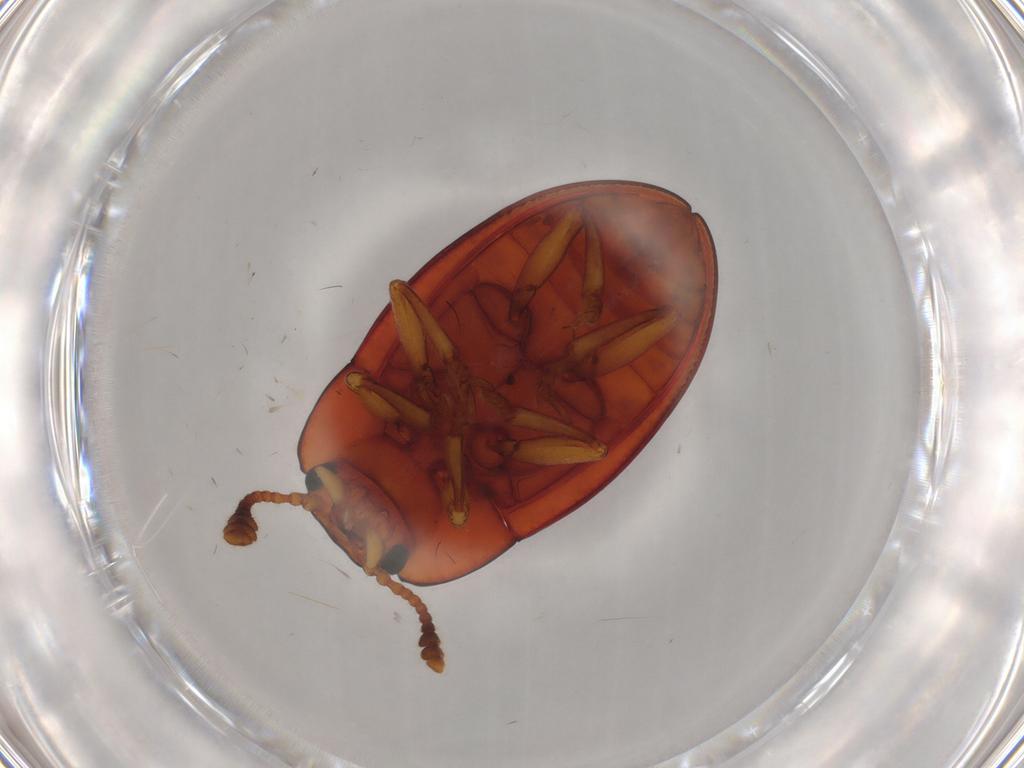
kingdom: Animalia
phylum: Arthropoda
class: Insecta
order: Coleoptera
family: Erotylidae
